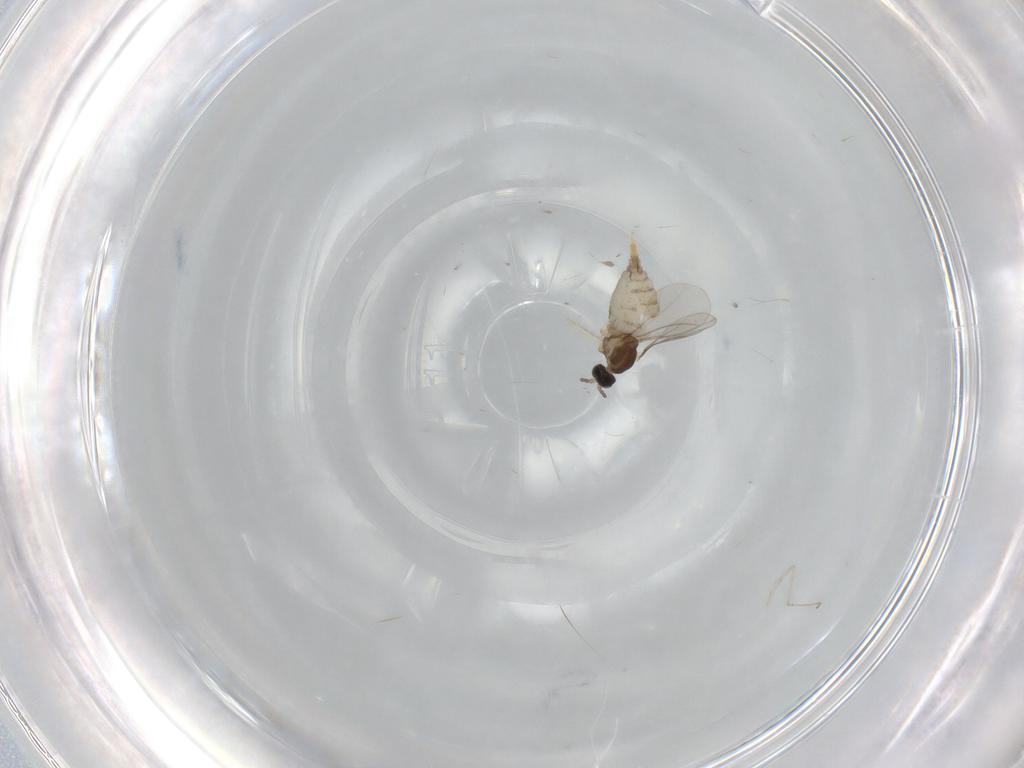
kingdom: Animalia
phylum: Arthropoda
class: Insecta
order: Diptera
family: Cecidomyiidae
